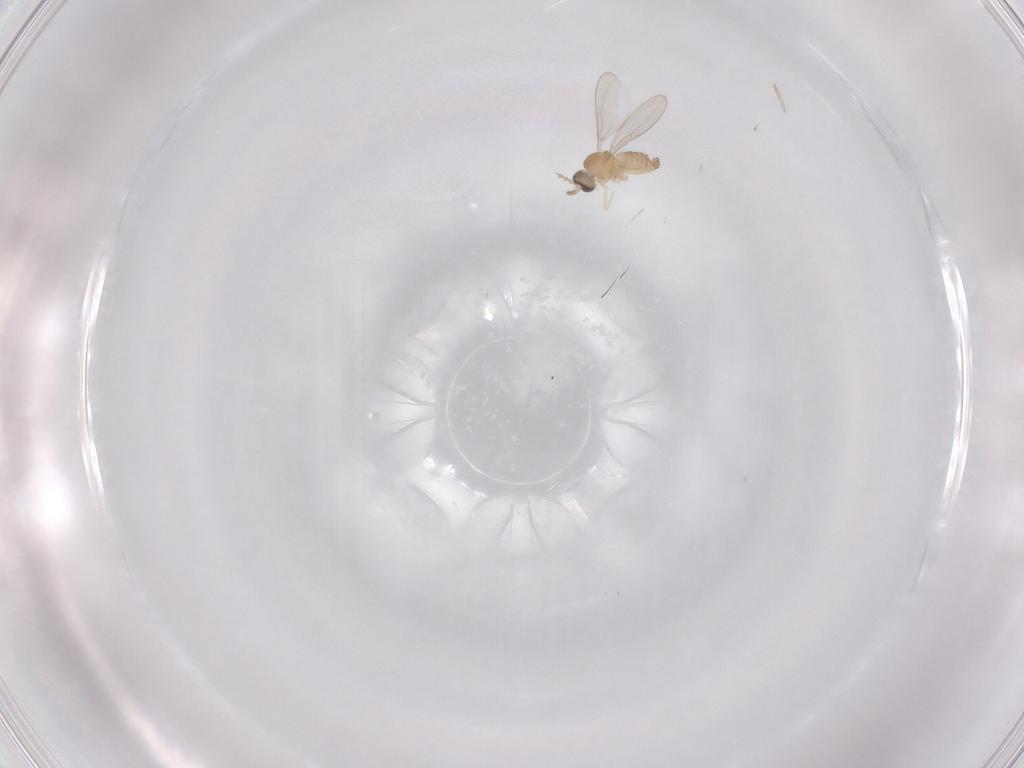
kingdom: Animalia
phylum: Arthropoda
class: Insecta
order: Diptera
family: Cecidomyiidae
